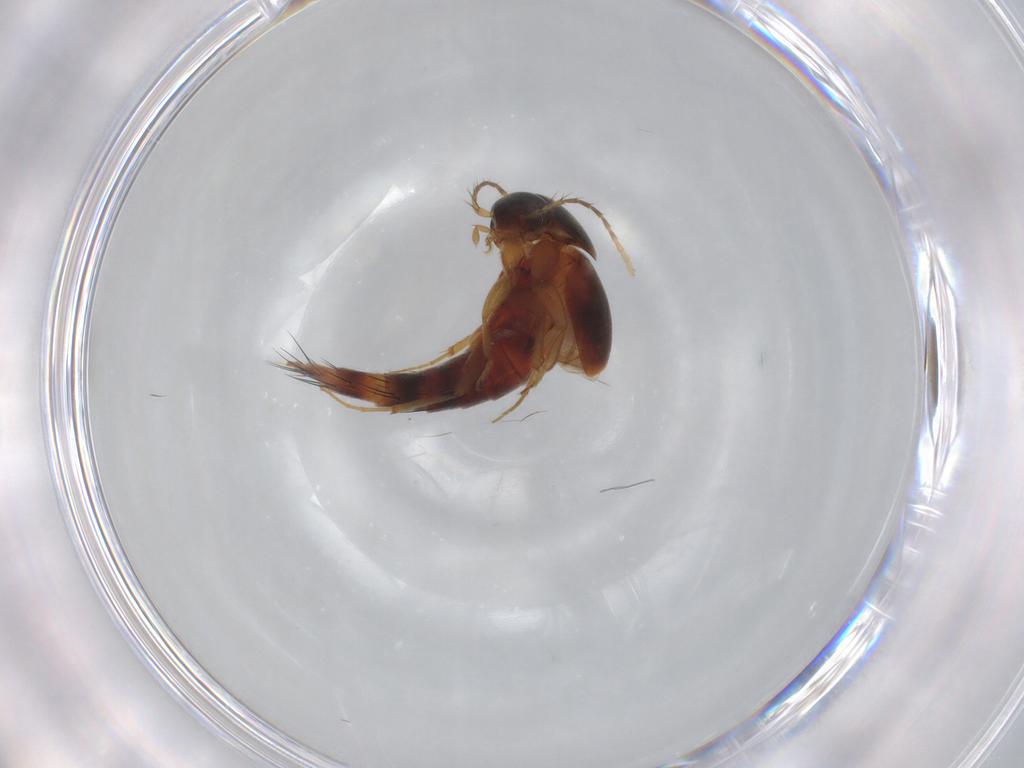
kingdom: Animalia
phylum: Arthropoda
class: Insecta
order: Coleoptera
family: Staphylinidae
